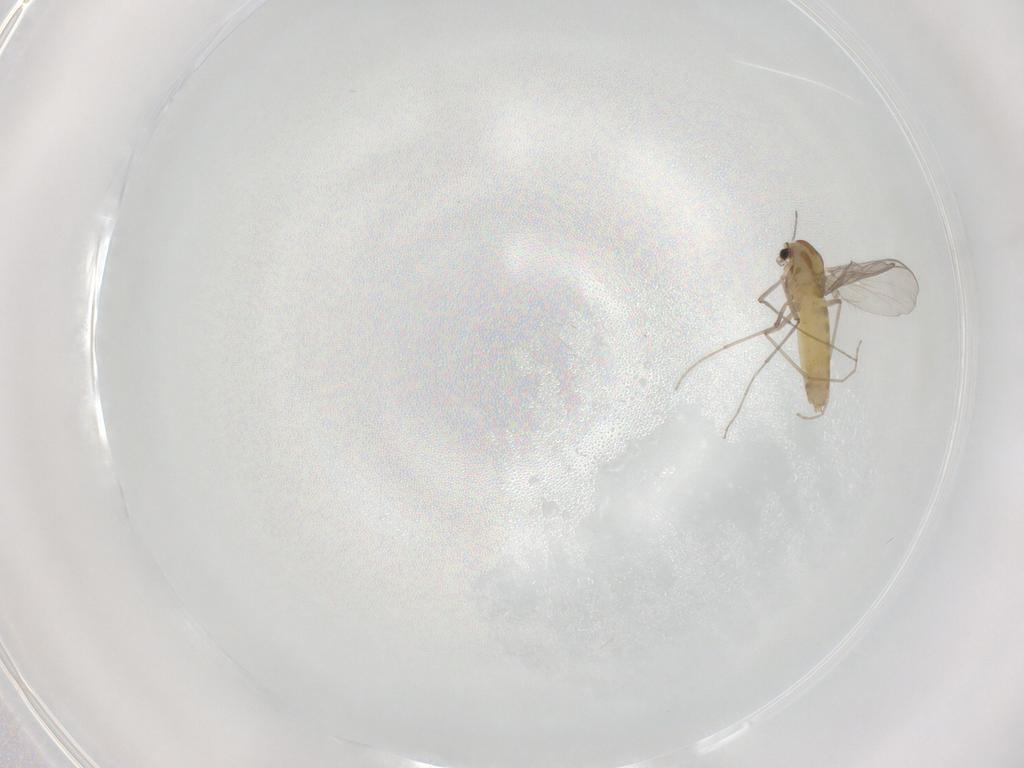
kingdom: Animalia
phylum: Arthropoda
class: Insecta
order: Diptera
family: Chironomidae
